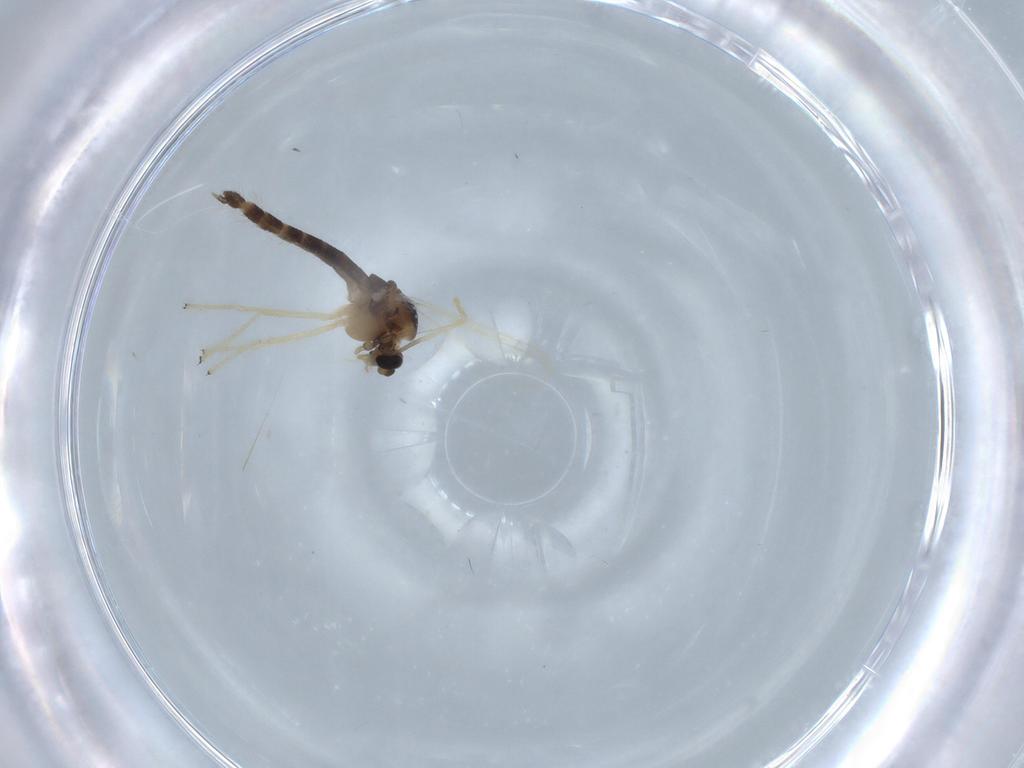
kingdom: Animalia
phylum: Arthropoda
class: Insecta
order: Diptera
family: Chironomidae
